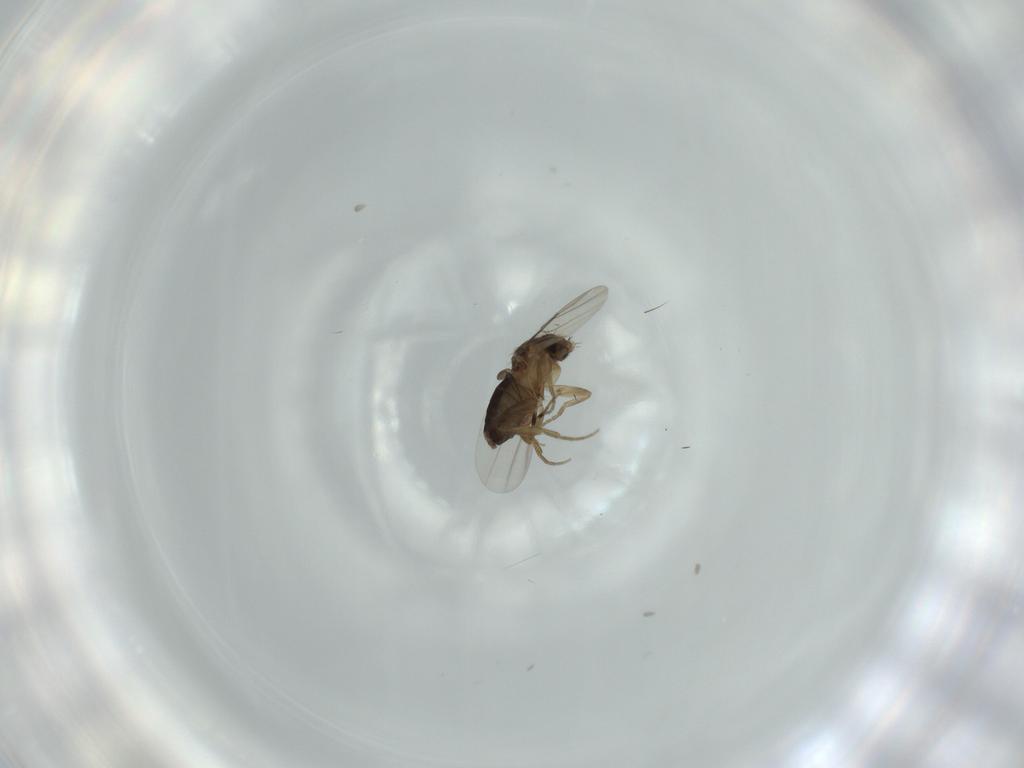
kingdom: Animalia
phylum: Arthropoda
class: Insecta
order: Diptera
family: Phoridae
